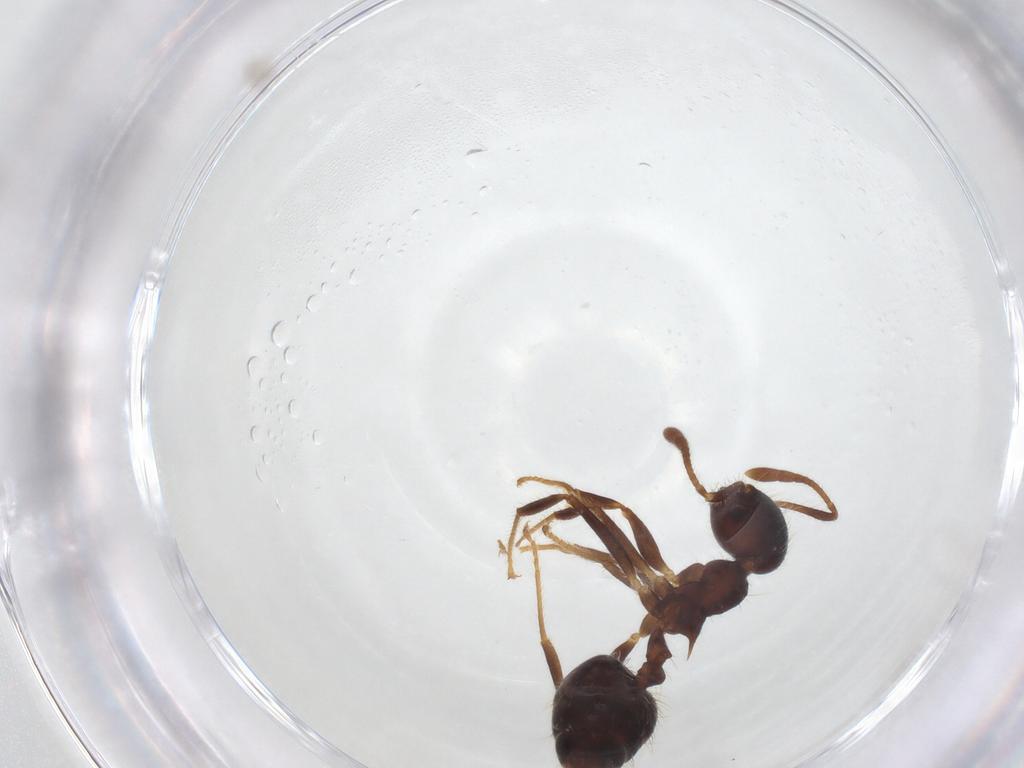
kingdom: Animalia
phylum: Arthropoda
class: Insecta
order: Hymenoptera
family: Formicidae
